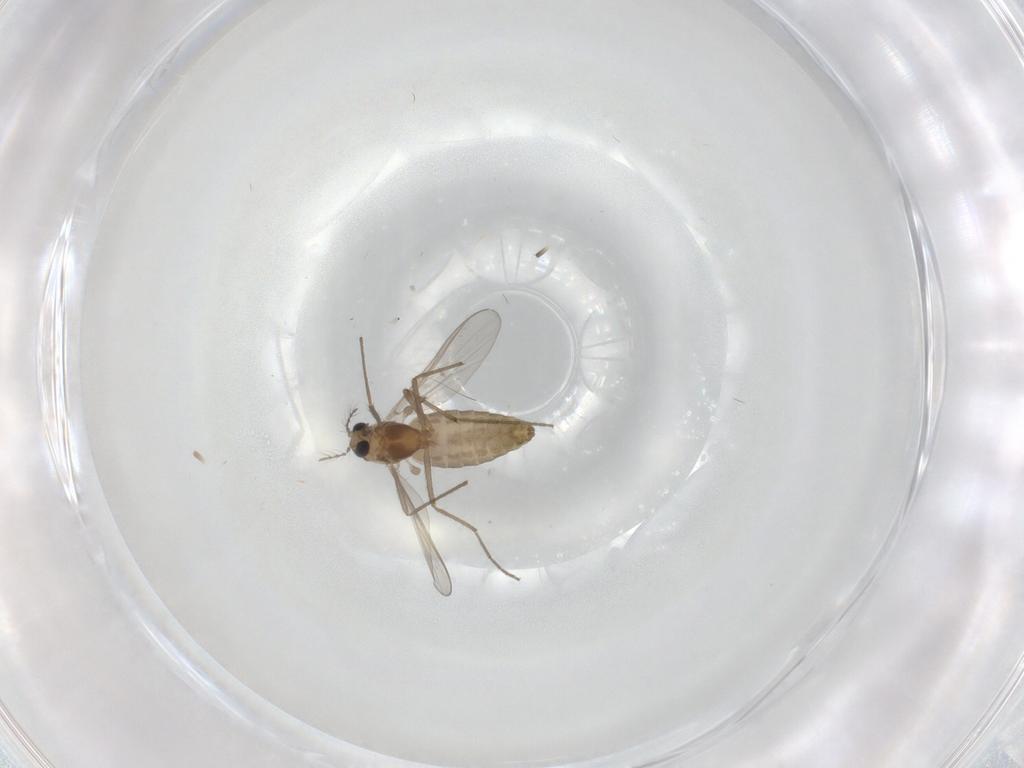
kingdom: Animalia
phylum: Arthropoda
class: Insecta
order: Diptera
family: Chironomidae
